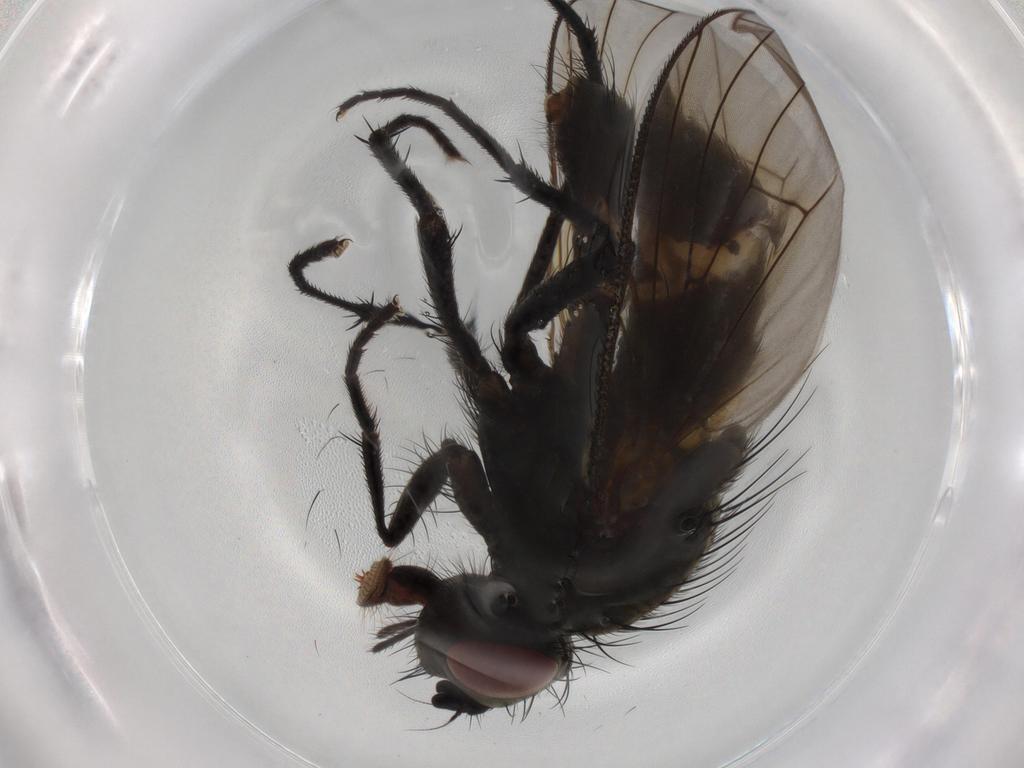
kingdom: Animalia
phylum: Arthropoda
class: Insecta
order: Diptera
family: Muscidae
